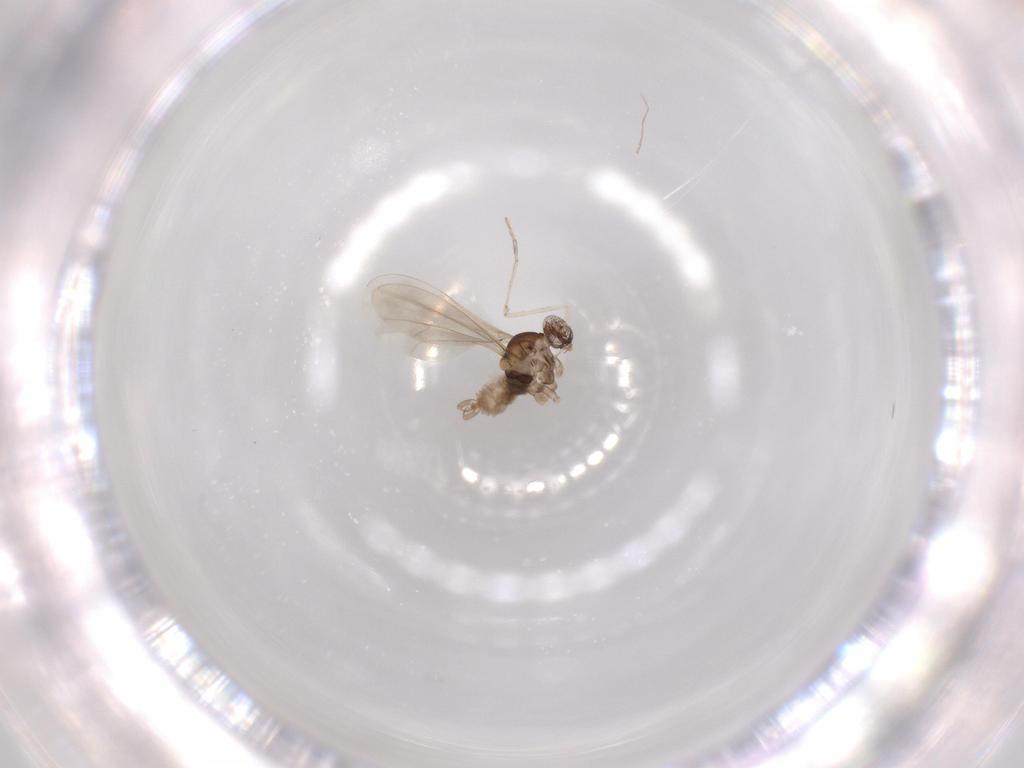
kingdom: Animalia
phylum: Arthropoda
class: Insecta
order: Diptera
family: Cecidomyiidae
